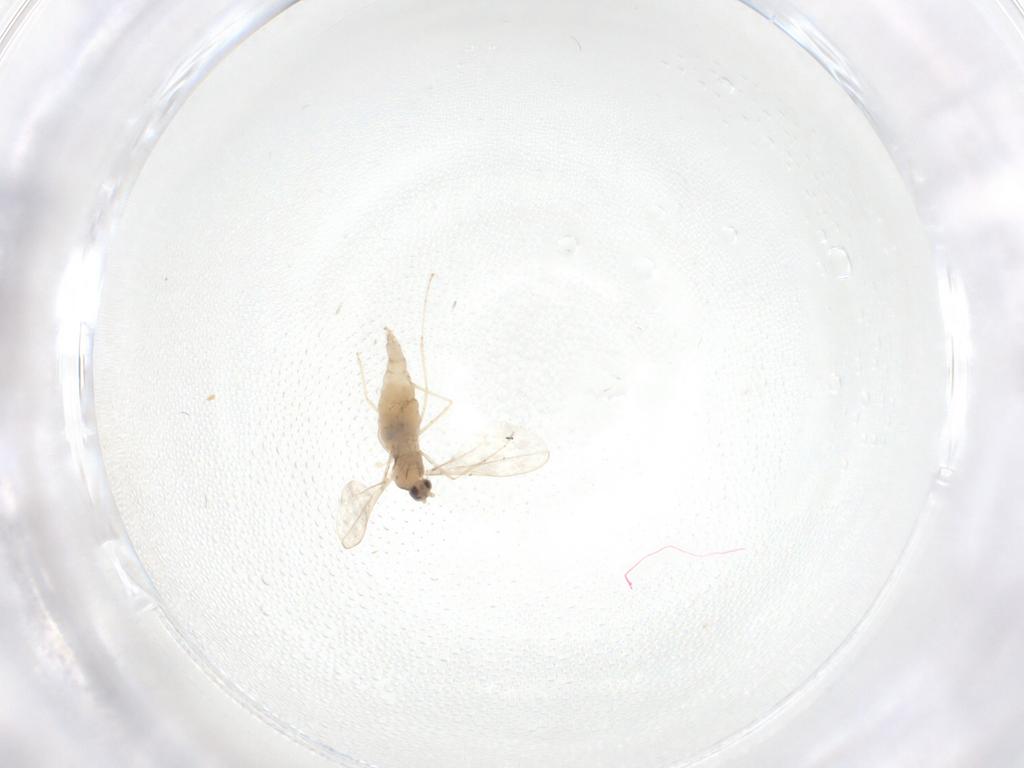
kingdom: Animalia
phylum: Arthropoda
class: Insecta
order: Diptera
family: Cecidomyiidae
